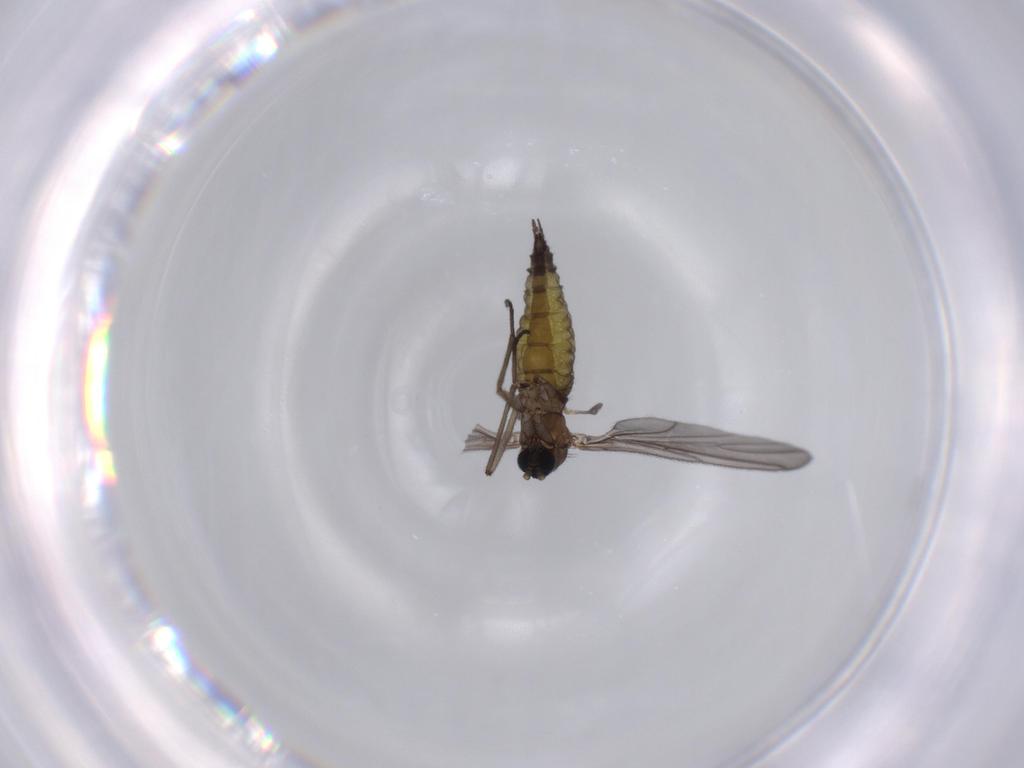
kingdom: Animalia
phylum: Arthropoda
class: Insecta
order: Diptera
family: Sciaridae
